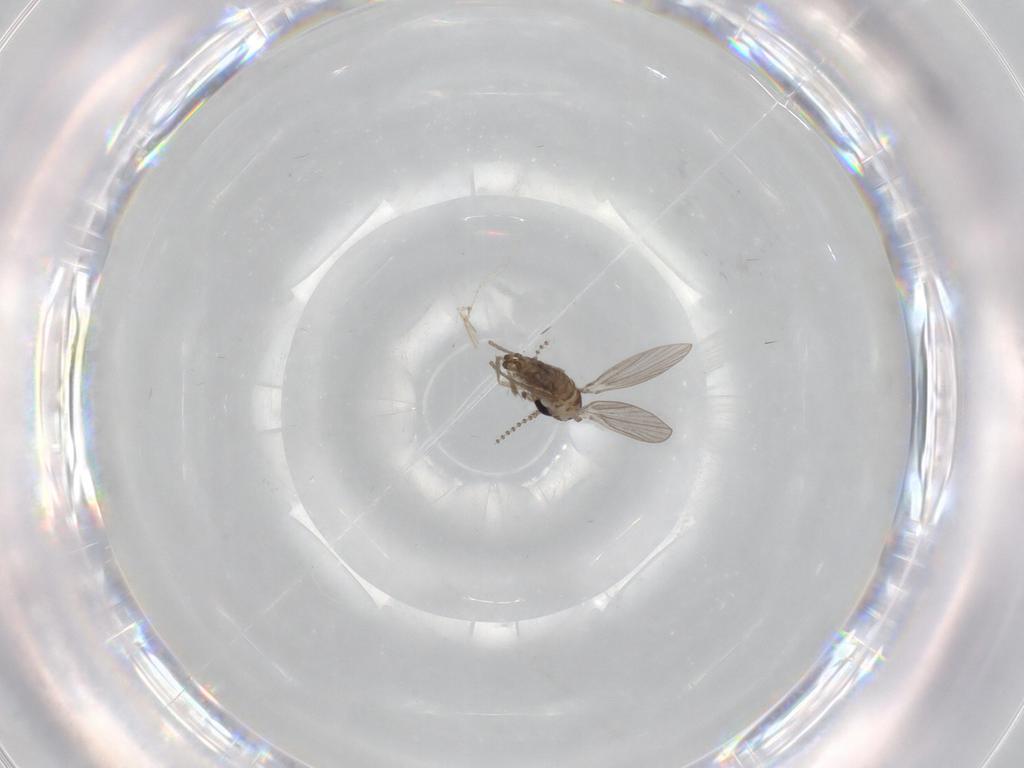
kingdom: Animalia
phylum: Arthropoda
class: Insecta
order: Diptera
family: Psychodidae
